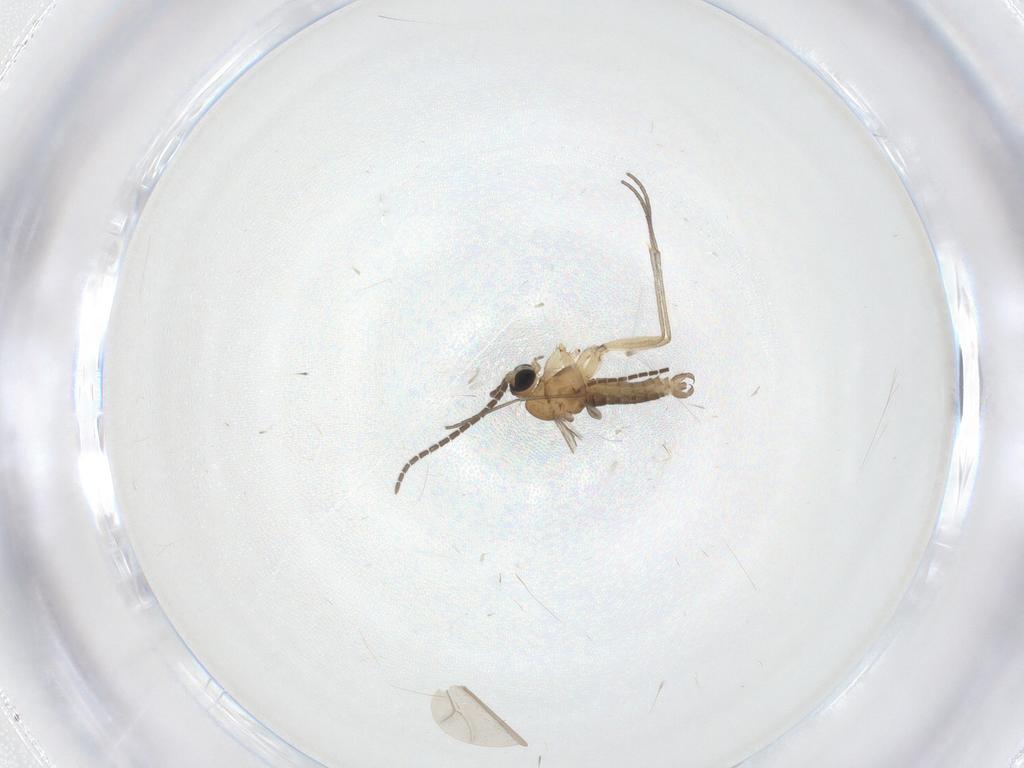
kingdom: Animalia
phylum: Arthropoda
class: Insecta
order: Diptera
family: Sciaridae
